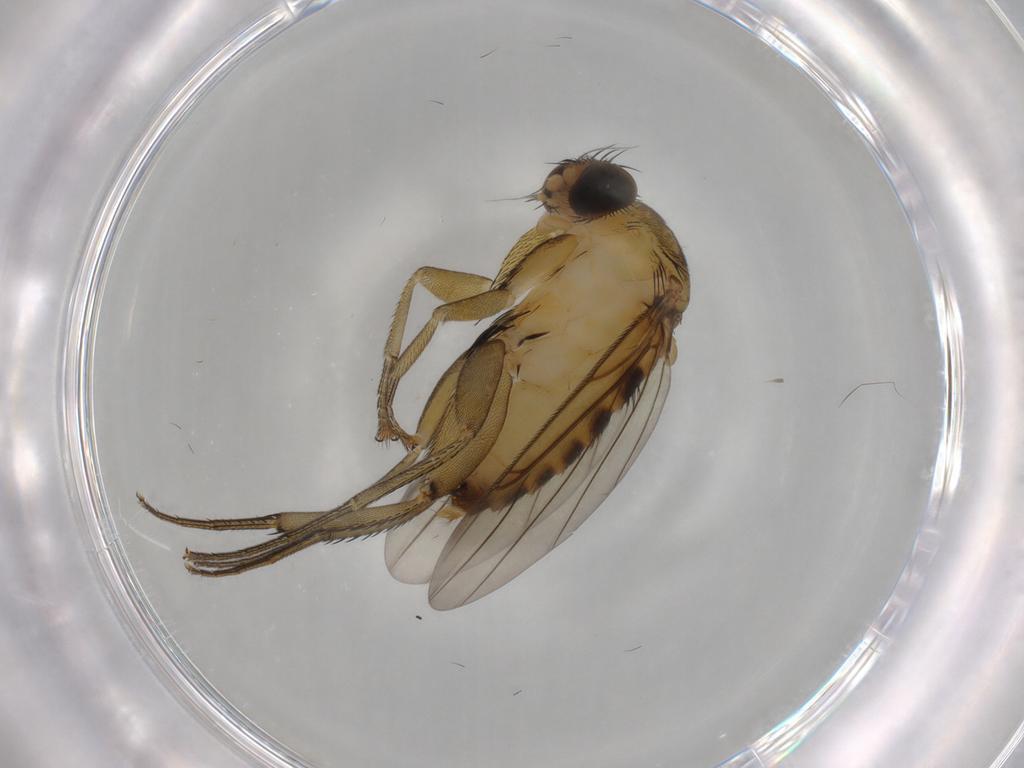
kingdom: Animalia
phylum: Arthropoda
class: Insecta
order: Diptera
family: Phoridae
